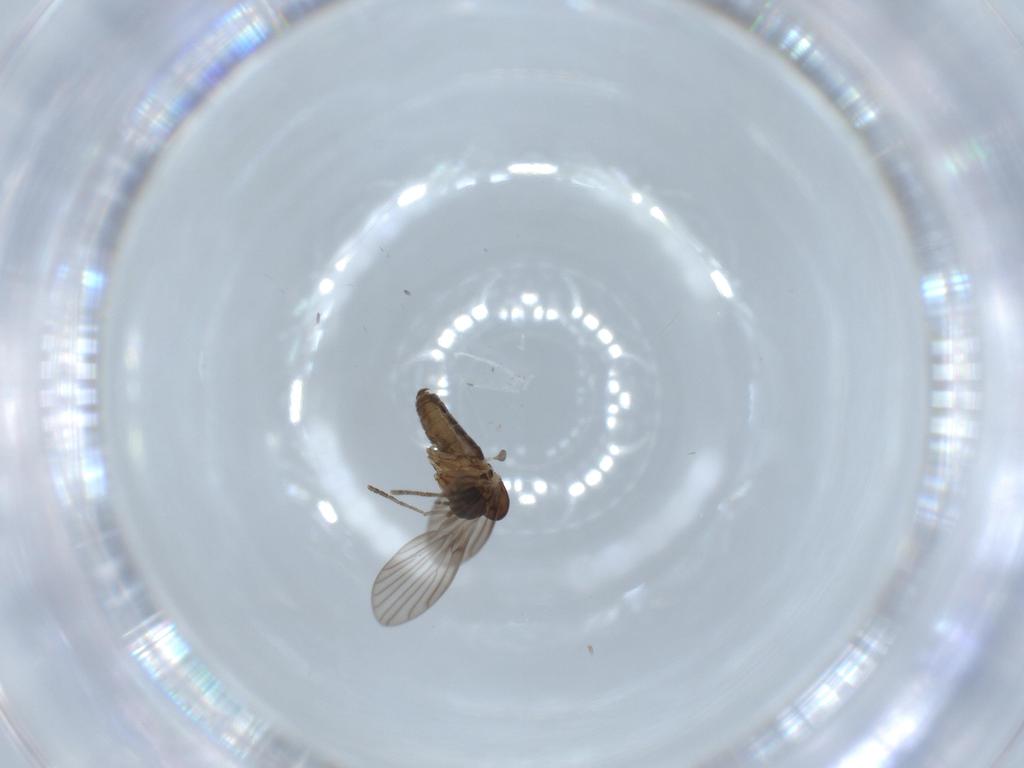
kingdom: Animalia
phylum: Arthropoda
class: Insecta
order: Diptera
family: Psychodidae
